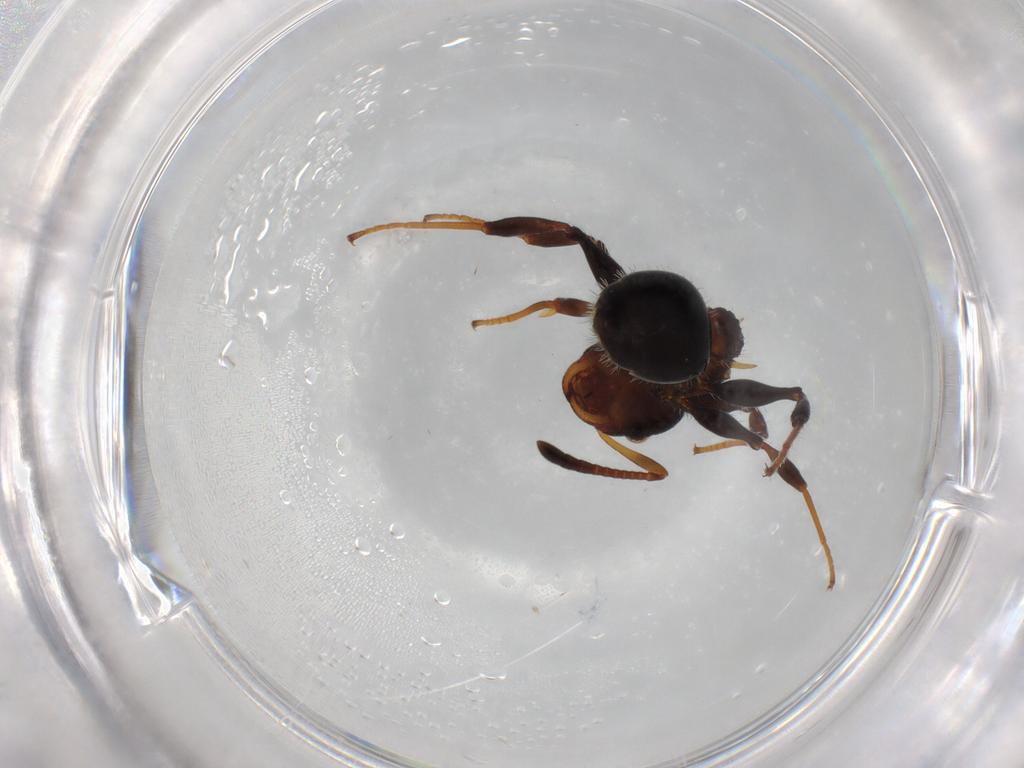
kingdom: Animalia
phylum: Arthropoda
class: Insecta
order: Hymenoptera
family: Formicidae
